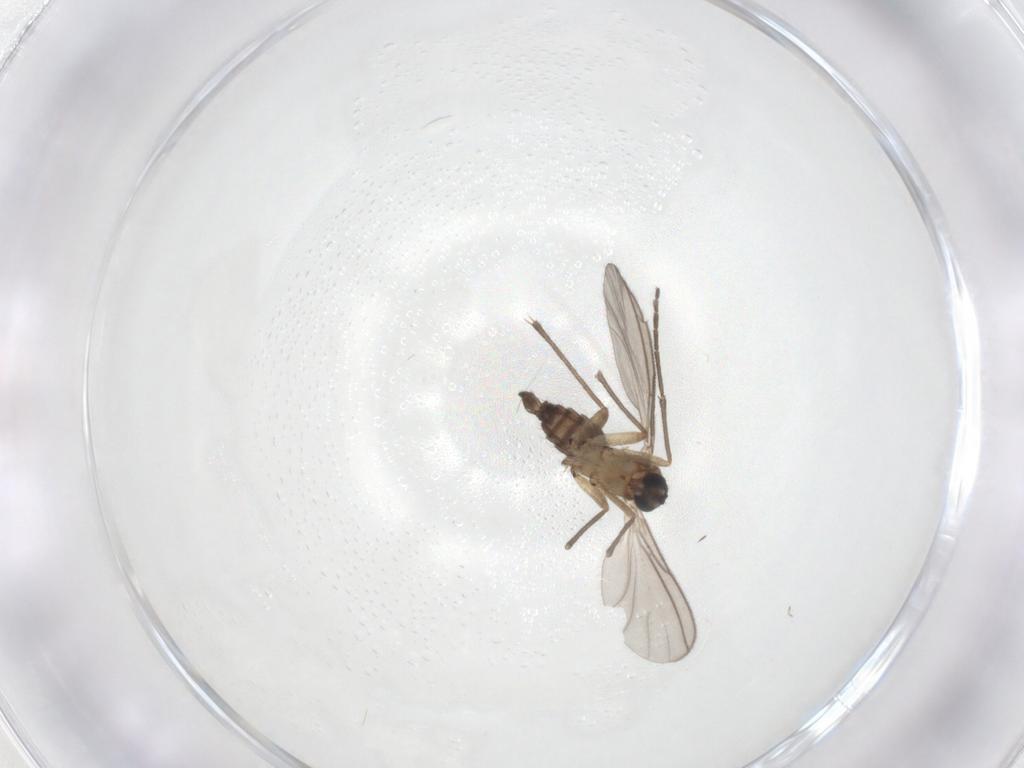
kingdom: Animalia
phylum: Arthropoda
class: Insecta
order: Diptera
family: Sciaridae
